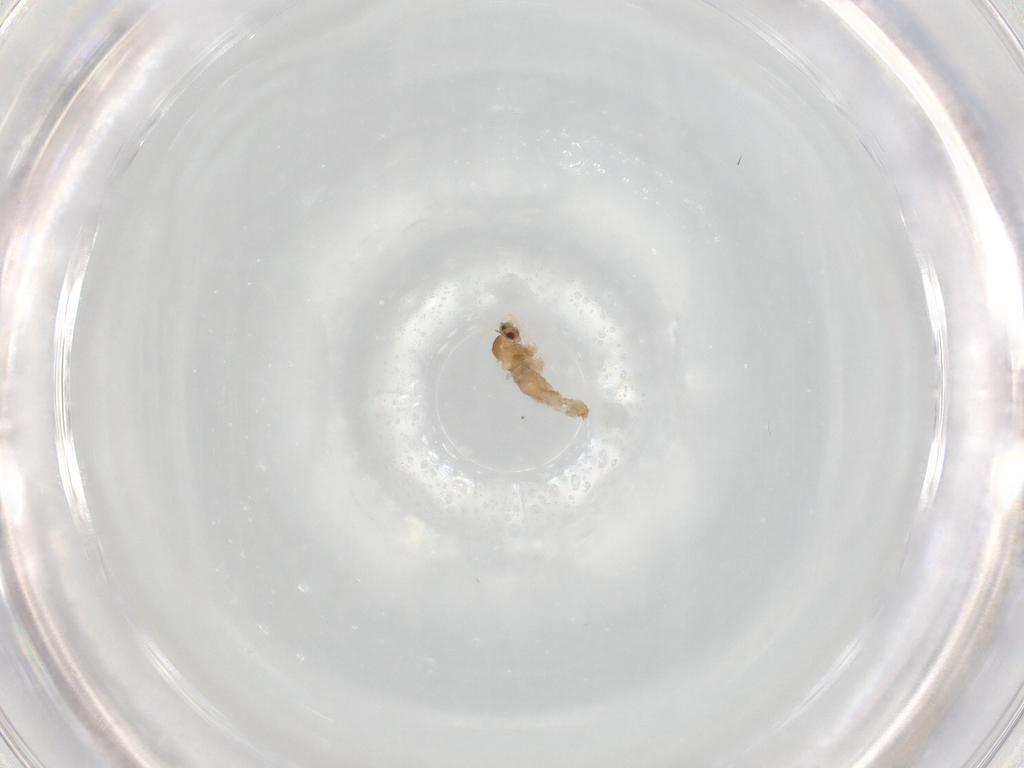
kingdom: Animalia
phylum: Arthropoda
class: Insecta
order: Diptera
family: Cecidomyiidae
